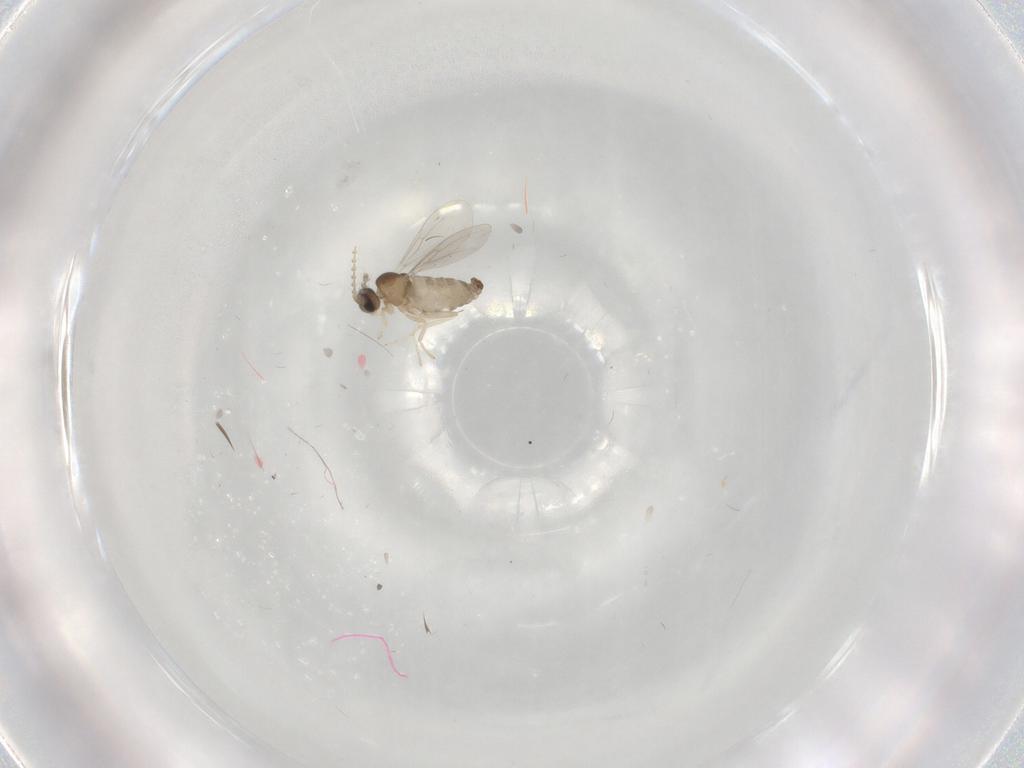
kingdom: Animalia
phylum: Arthropoda
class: Insecta
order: Diptera
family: Cecidomyiidae
